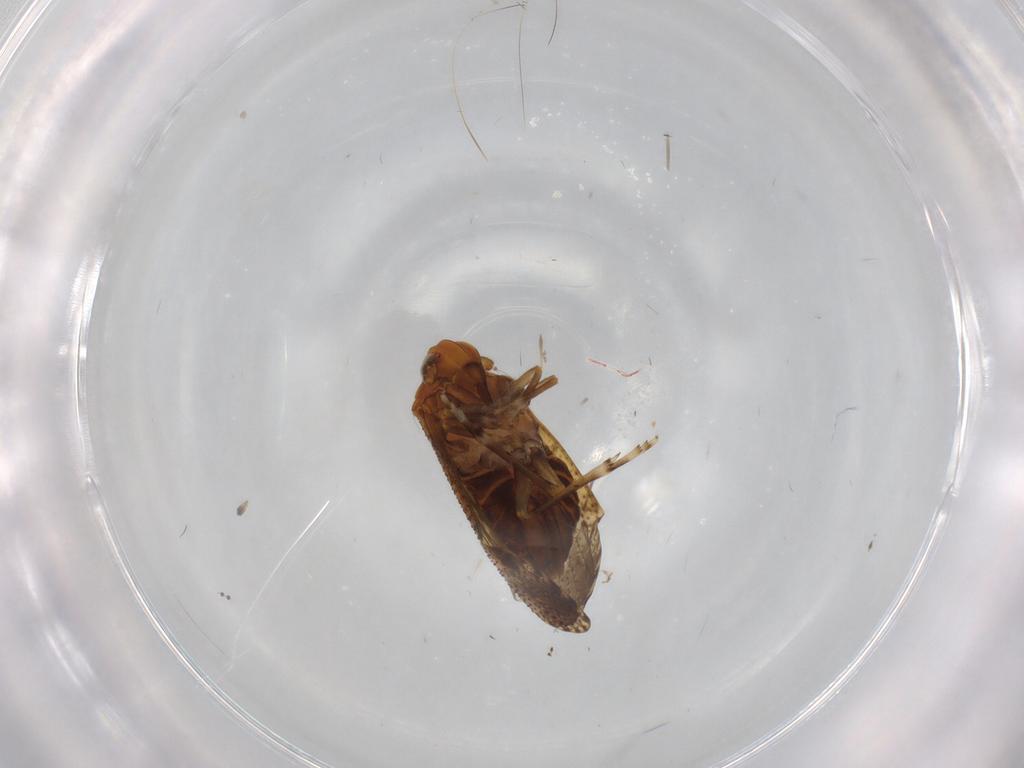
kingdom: Animalia
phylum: Arthropoda
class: Insecta
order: Hemiptera
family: Delphacidae
